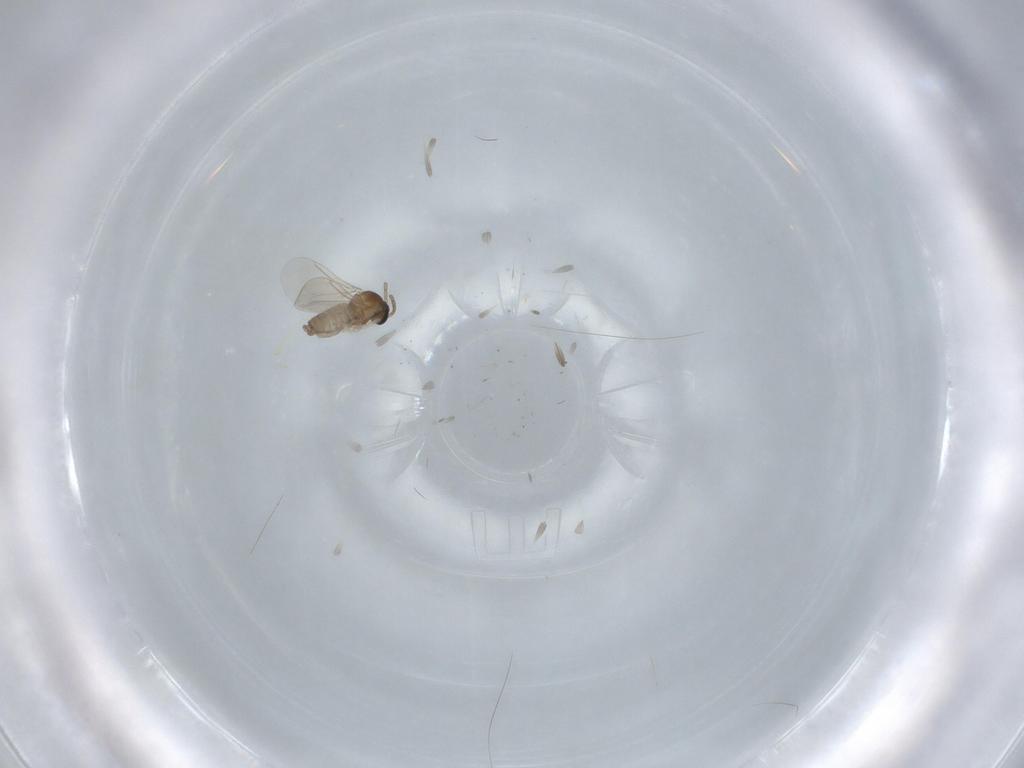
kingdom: Animalia
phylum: Arthropoda
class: Insecta
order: Diptera
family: Cecidomyiidae
